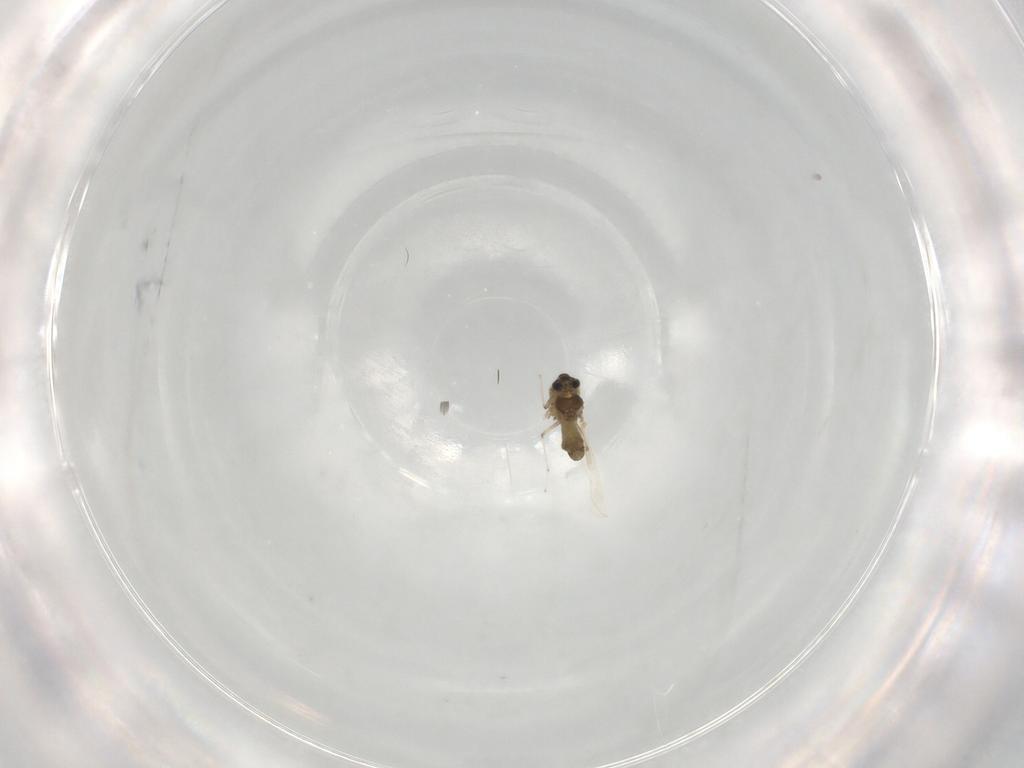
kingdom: Animalia
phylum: Arthropoda
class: Insecta
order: Diptera
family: Chironomidae
